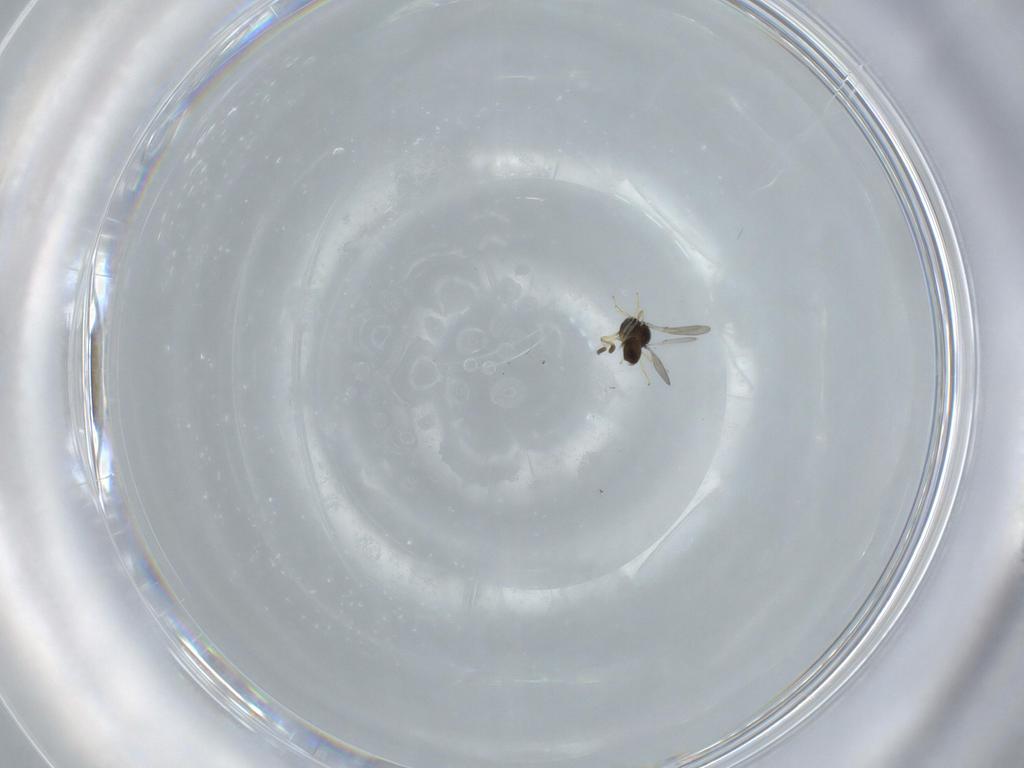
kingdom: Animalia
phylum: Arthropoda
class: Insecta
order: Hymenoptera
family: Scelionidae
